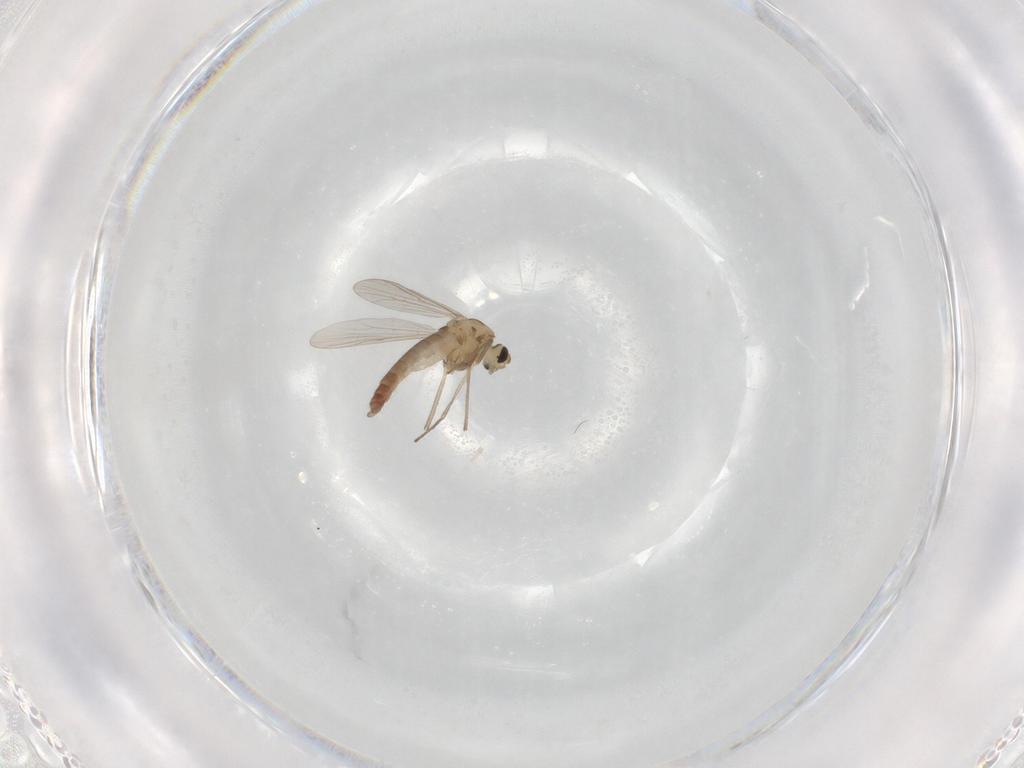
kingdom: Animalia
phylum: Arthropoda
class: Insecta
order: Diptera
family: Chironomidae
